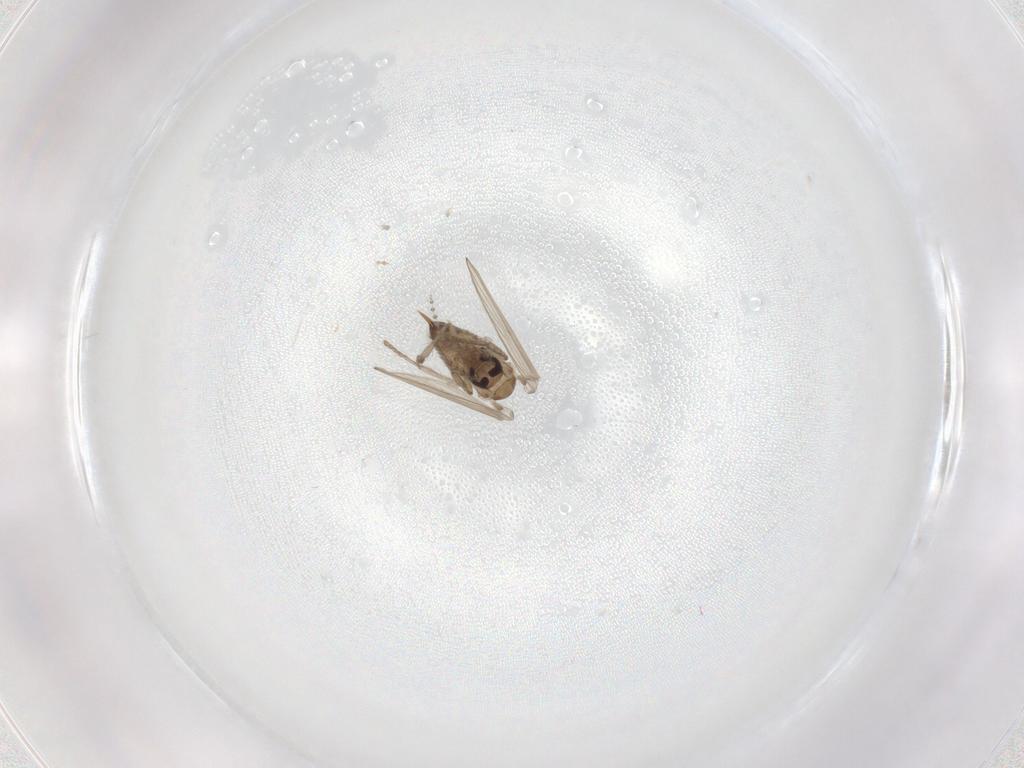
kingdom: Animalia
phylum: Arthropoda
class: Insecta
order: Diptera
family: Psychodidae
